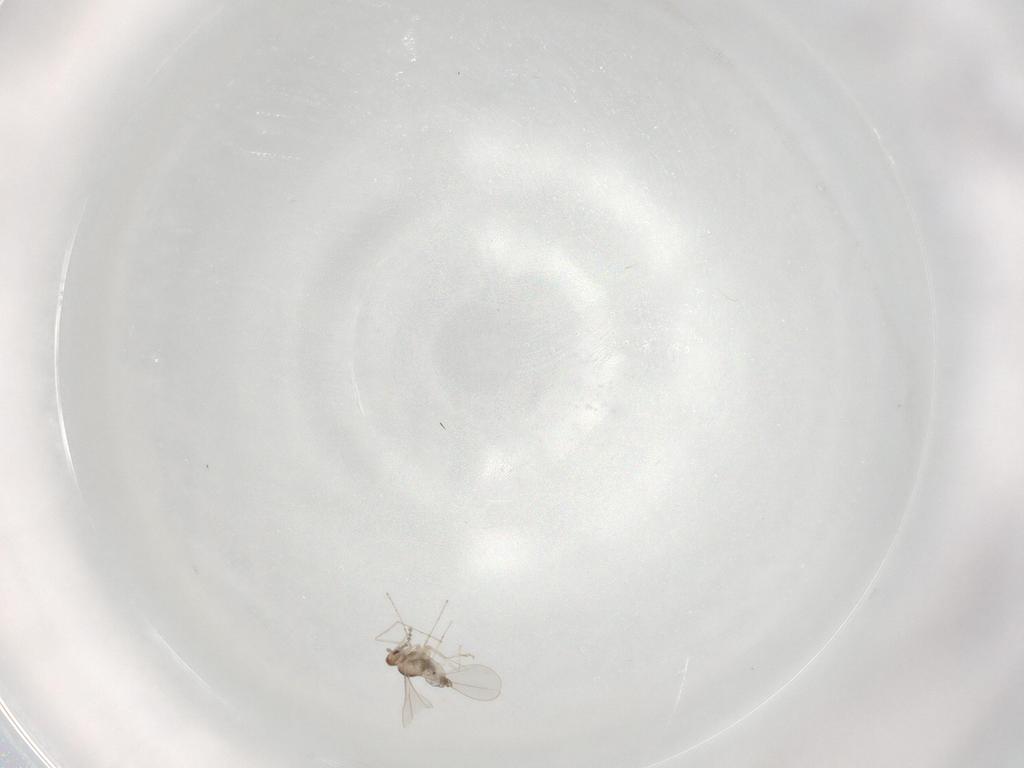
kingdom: Animalia
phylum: Arthropoda
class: Insecta
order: Diptera
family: Cecidomyiidae
